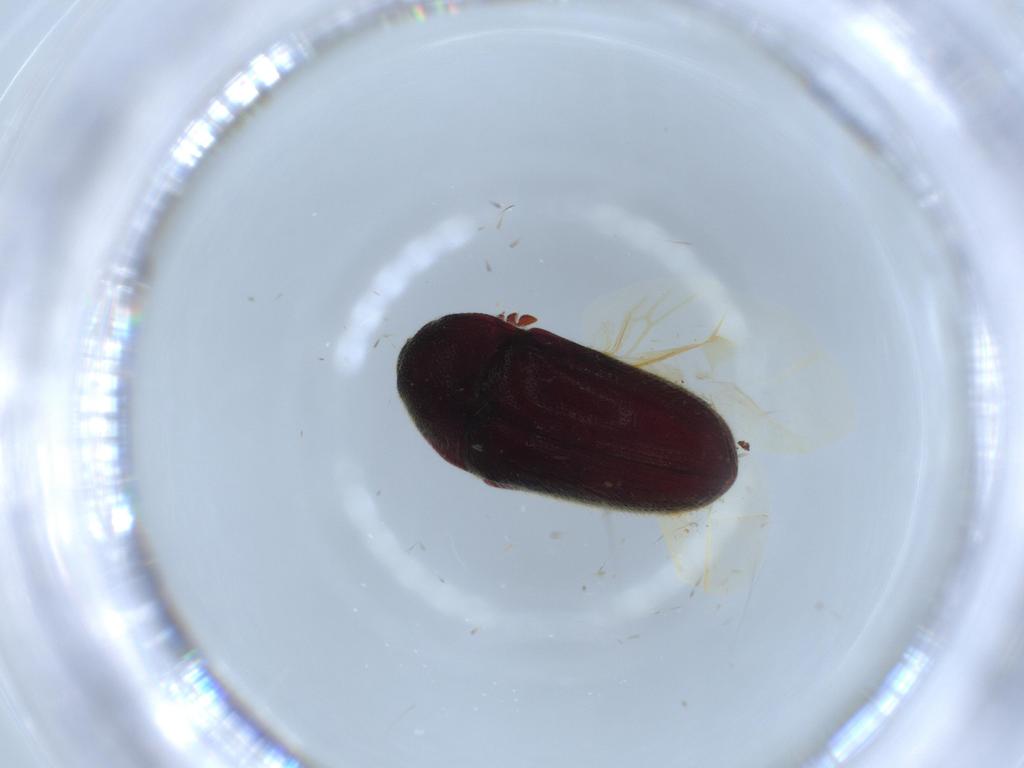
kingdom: Animalia
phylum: Arthropoda
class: Insecta
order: Coleoptera
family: Throscidae
